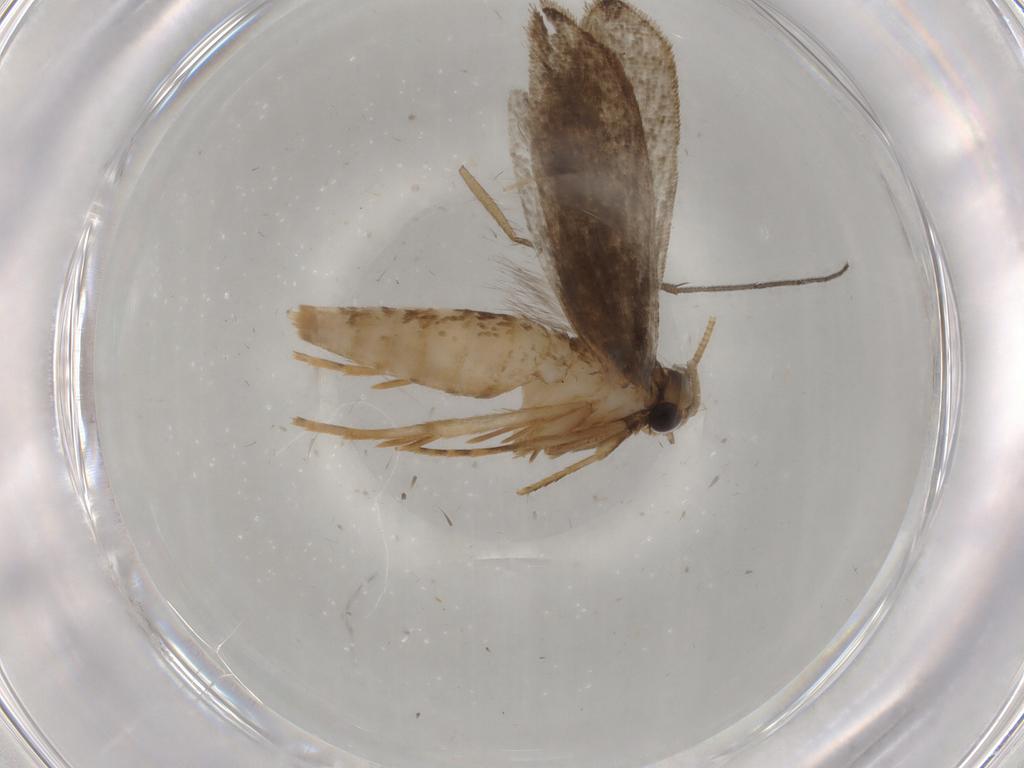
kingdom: Animalia
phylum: Arthropoda
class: Insecta
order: Lepidoptera
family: Tineidae
